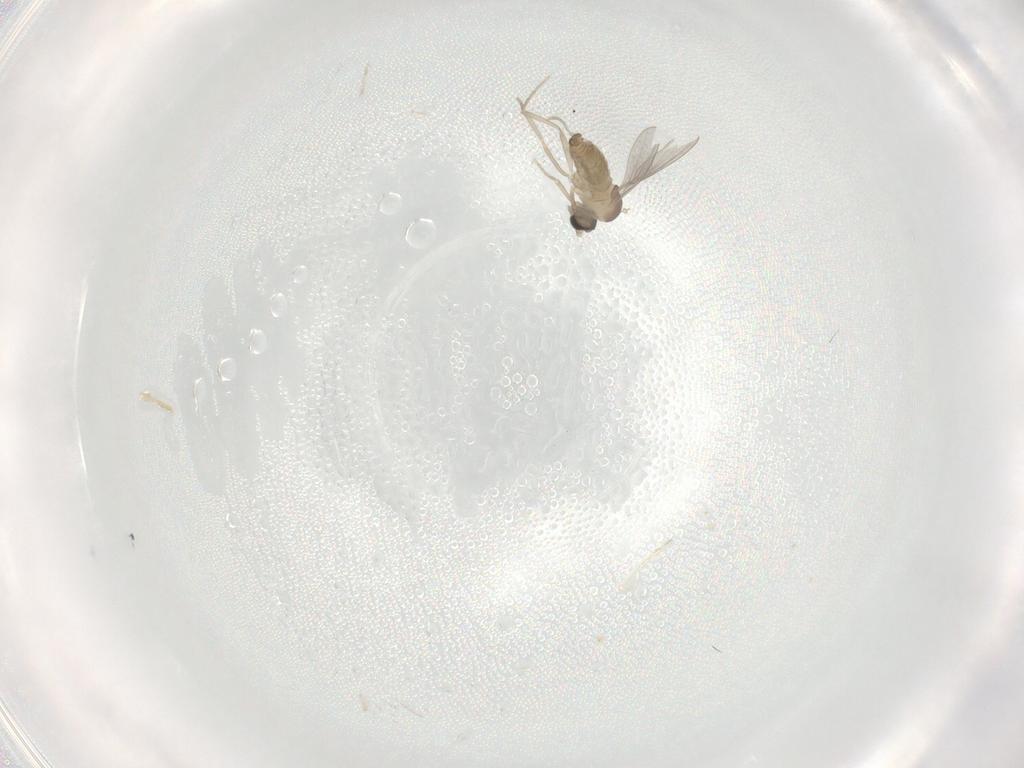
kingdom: Animalia
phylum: Arthropoda
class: Insecta
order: Diptera
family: Cecidomyiidae
